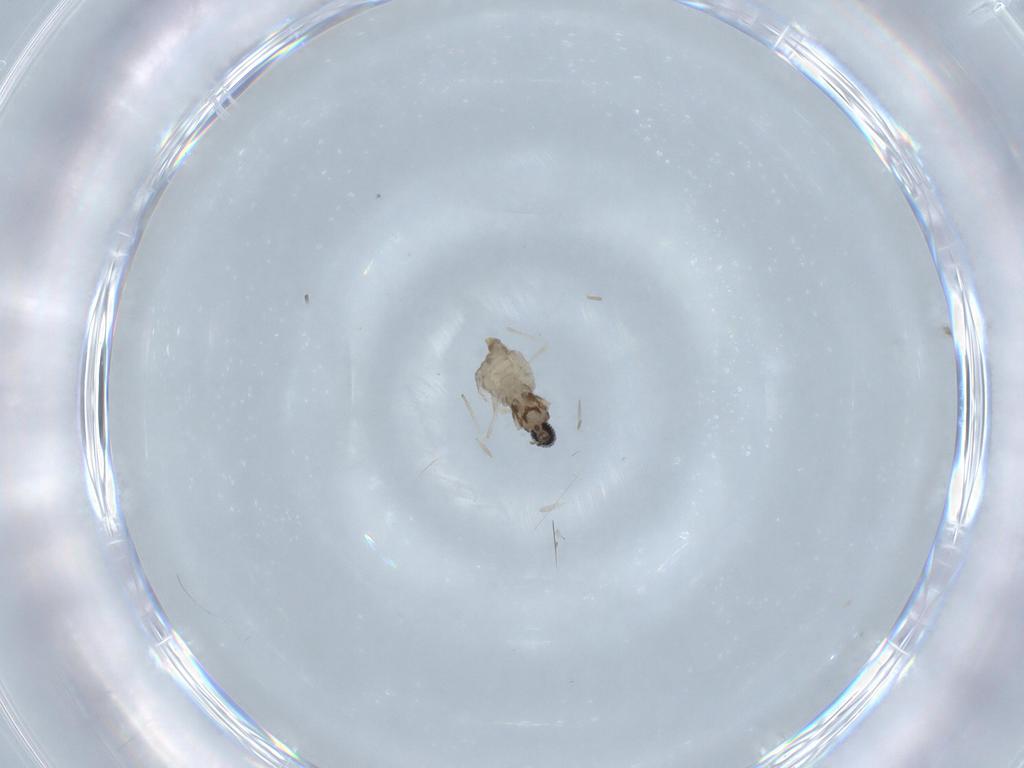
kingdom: Animalia
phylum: Arthropoda
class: Insecta
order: Diptera
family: Cecidomyiidae
